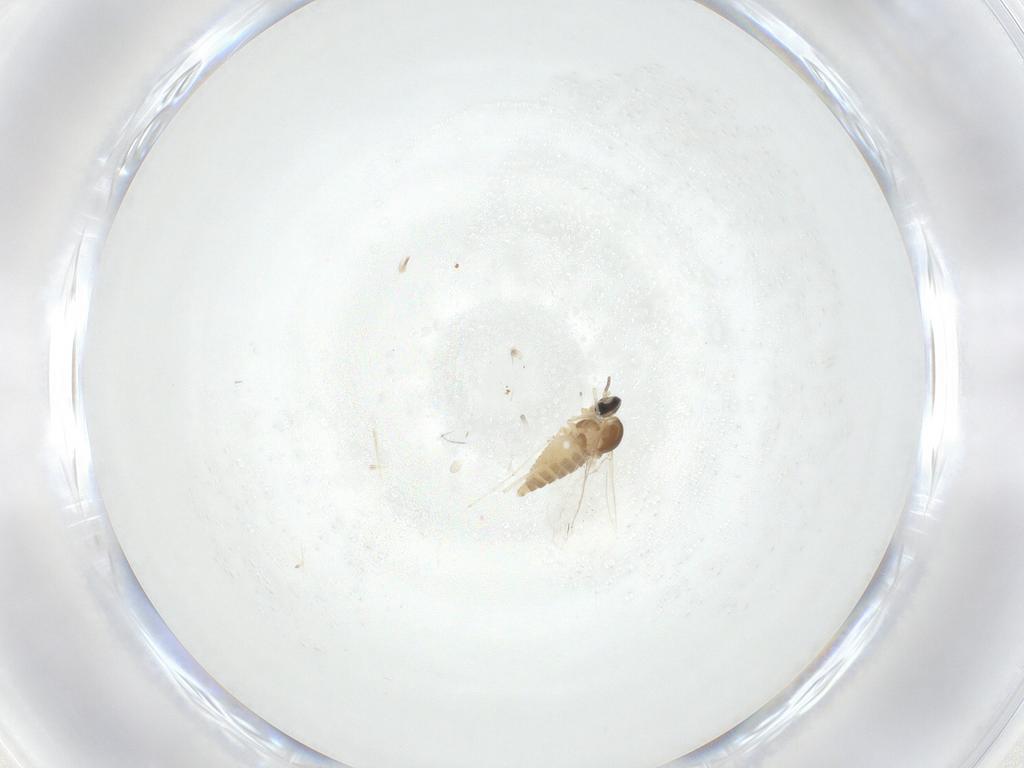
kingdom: Animalia
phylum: Arthropoda
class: Insecta
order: Diptera
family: Cecidomyiidae
